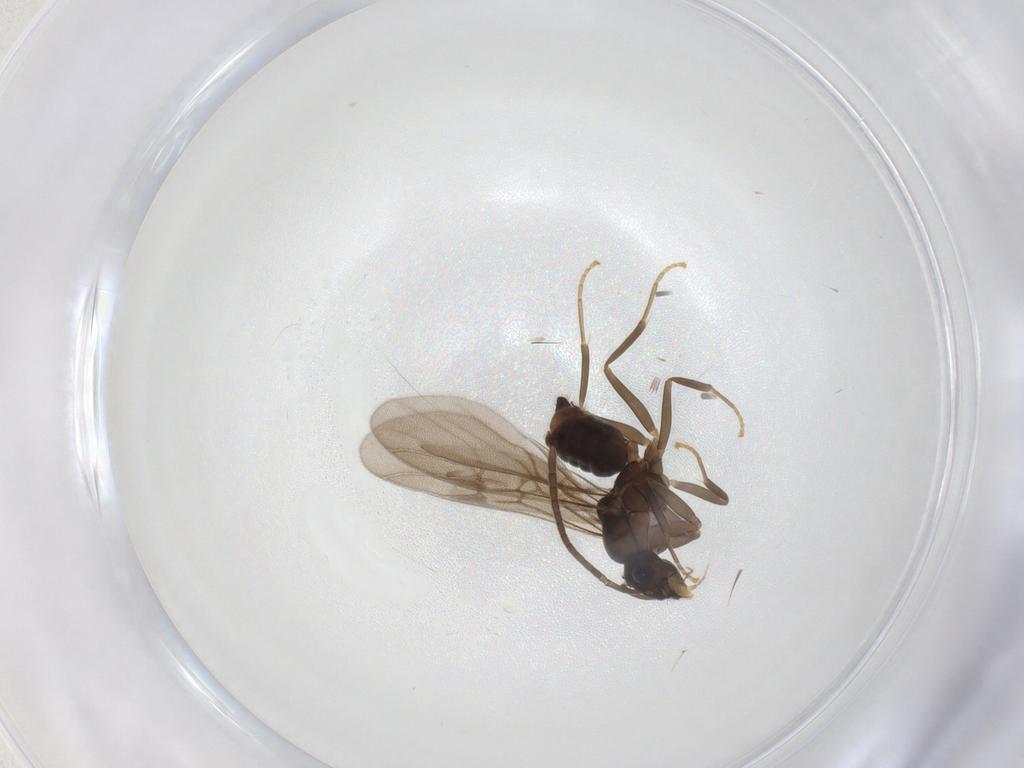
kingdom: Animalia
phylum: Arthropoda
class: Insecta
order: Hymenoptera
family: Formicidae
